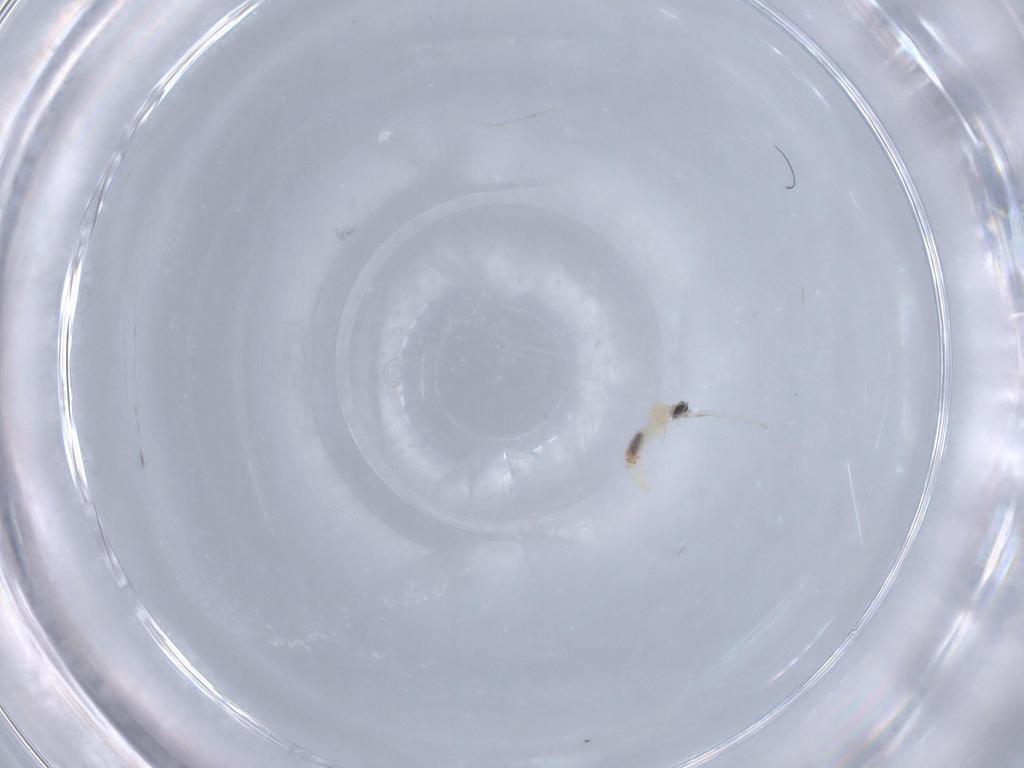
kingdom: Animalia
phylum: Arthropoda
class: Insecta
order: Diptera
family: Cecidomyiidae
